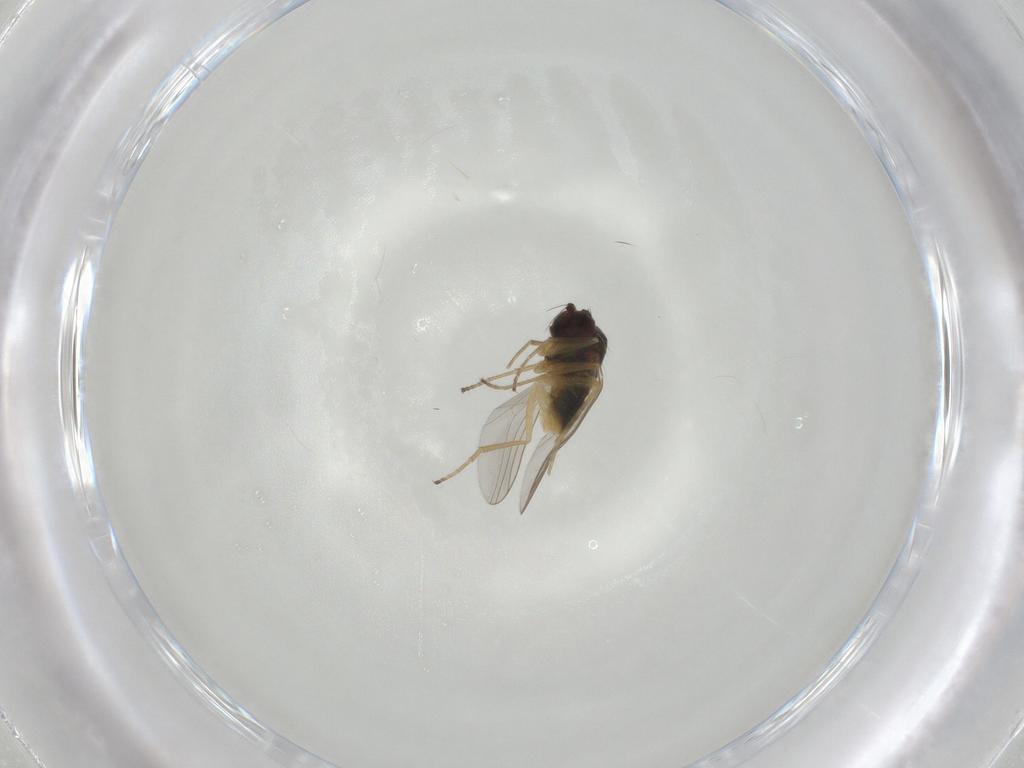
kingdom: Animalia
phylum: Arthropoda
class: Insecta
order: Diptera
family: Dolichopodidae
